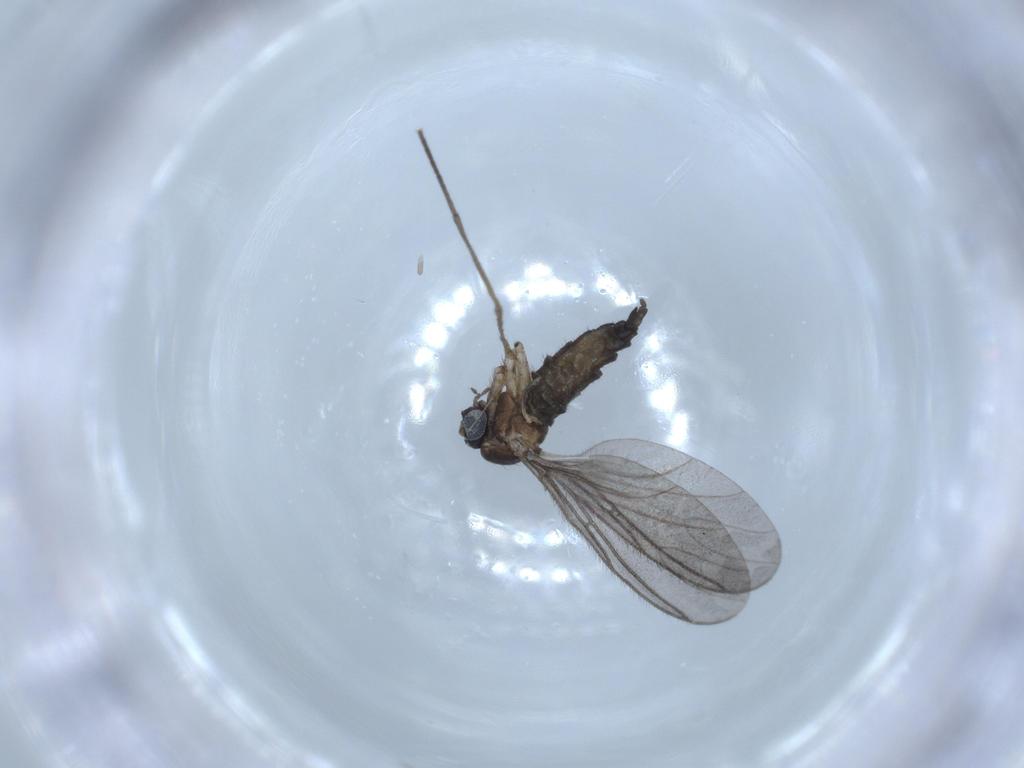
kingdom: Animalia
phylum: Arthropoda
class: Insecta
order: Diptera
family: Sciaridae
